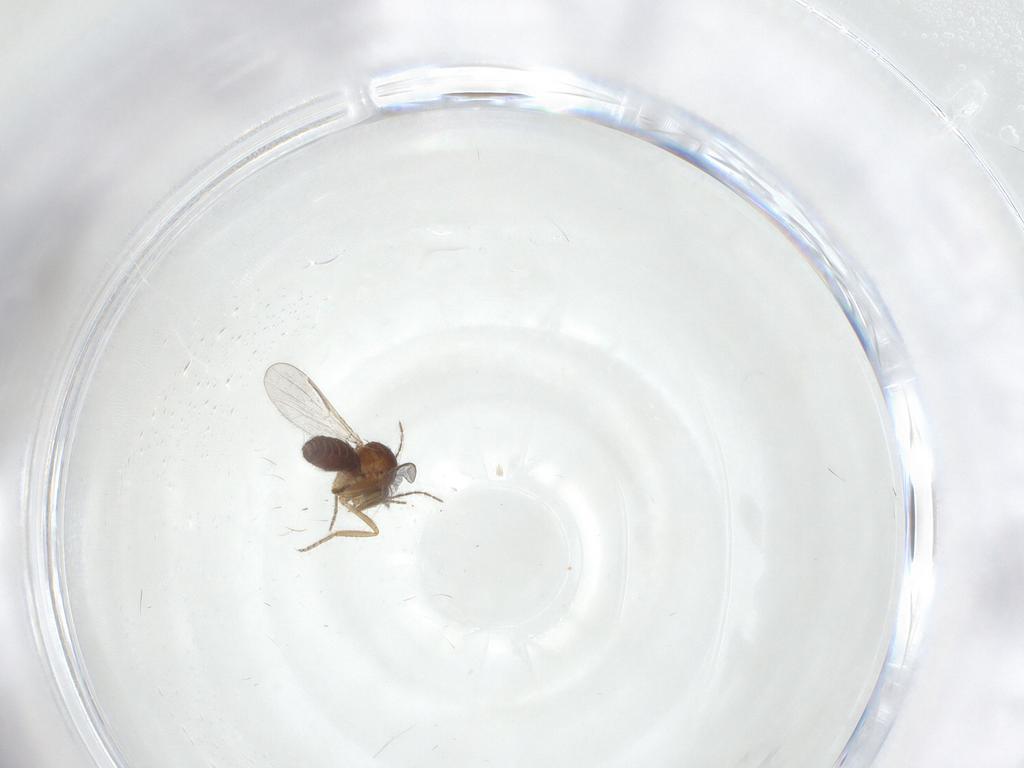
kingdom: Animalia
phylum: Arthropoda
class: Insecta
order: Diptera
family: Ceratopogonidae
